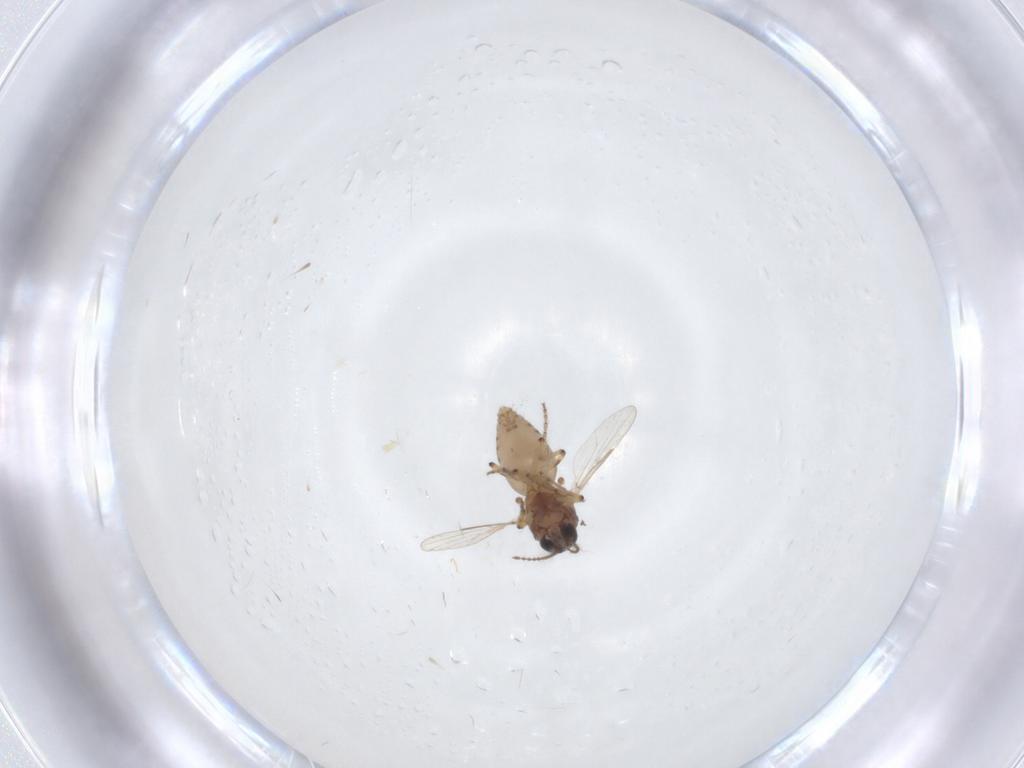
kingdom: Animalia
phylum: Arthropoda
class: Insecta
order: Diptera
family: Ceratopogonidae
